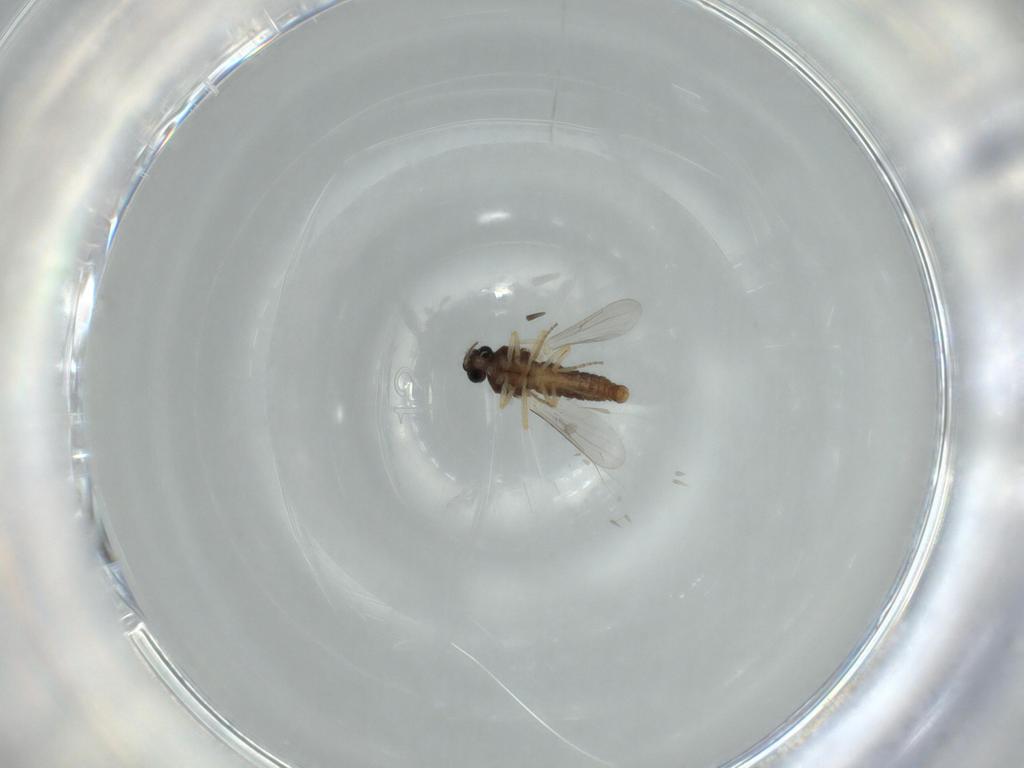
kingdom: Animalia
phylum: Arthropoda
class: Insecta
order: Diptera
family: Ceratopogonidae
